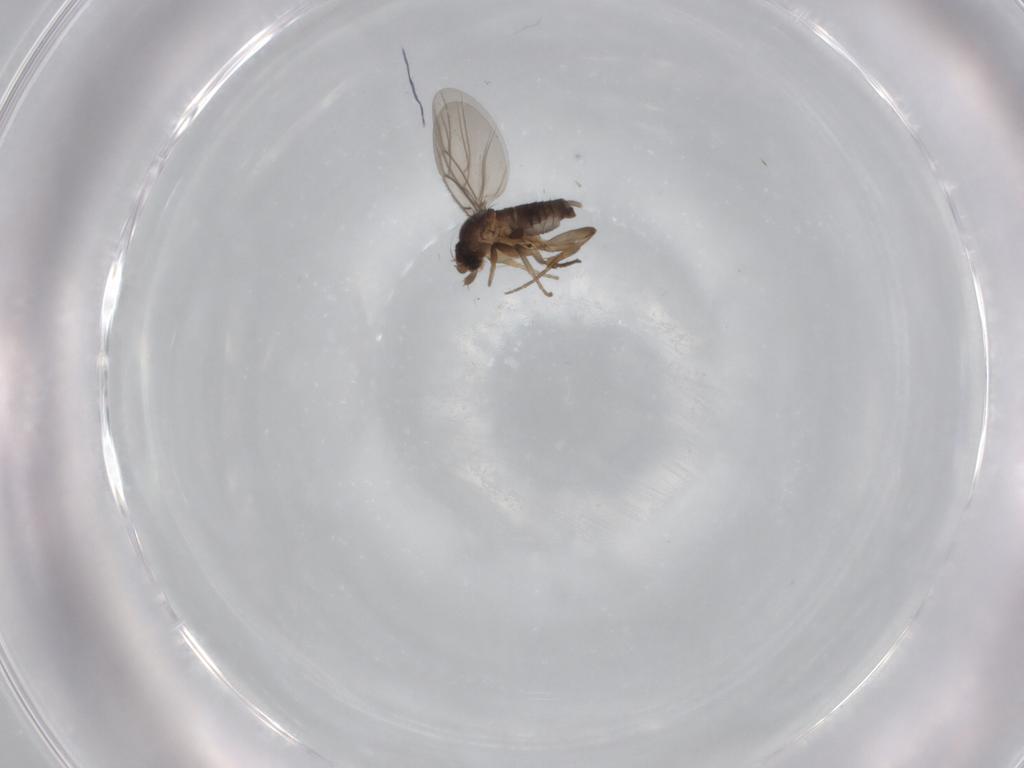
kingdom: Animalia
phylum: Arthropoda
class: Insecta
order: Diptera
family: Phoridae
